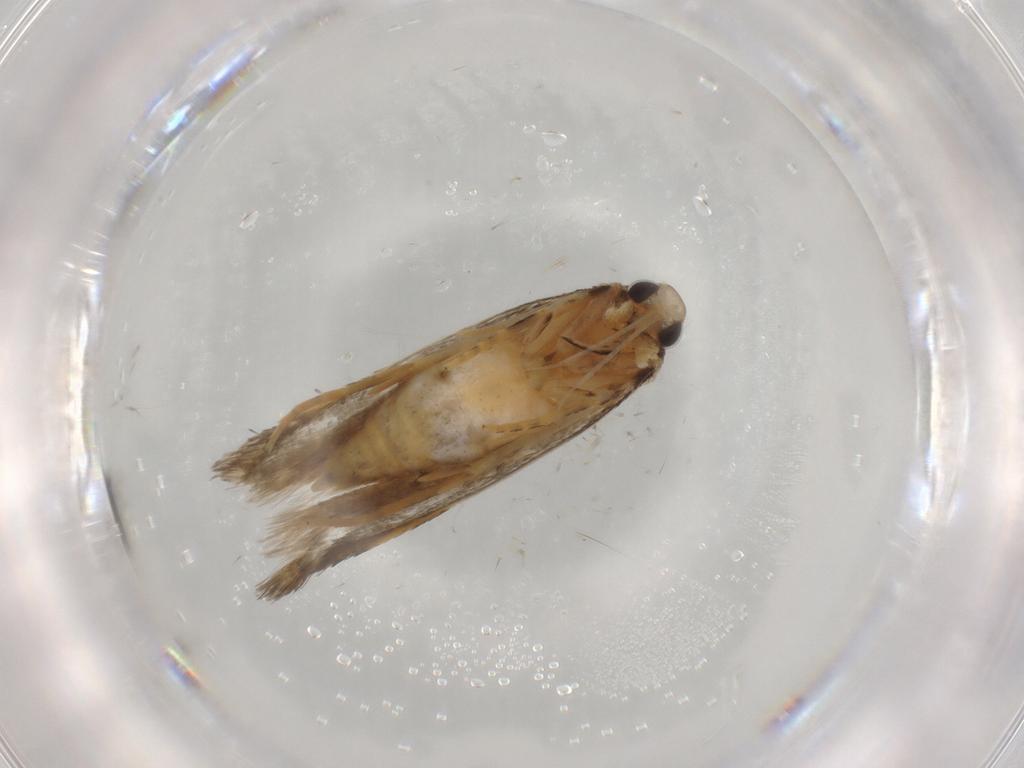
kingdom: Animalia
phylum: Arthropoda
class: Insecta
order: Lepidoptera
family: Autostichidae
